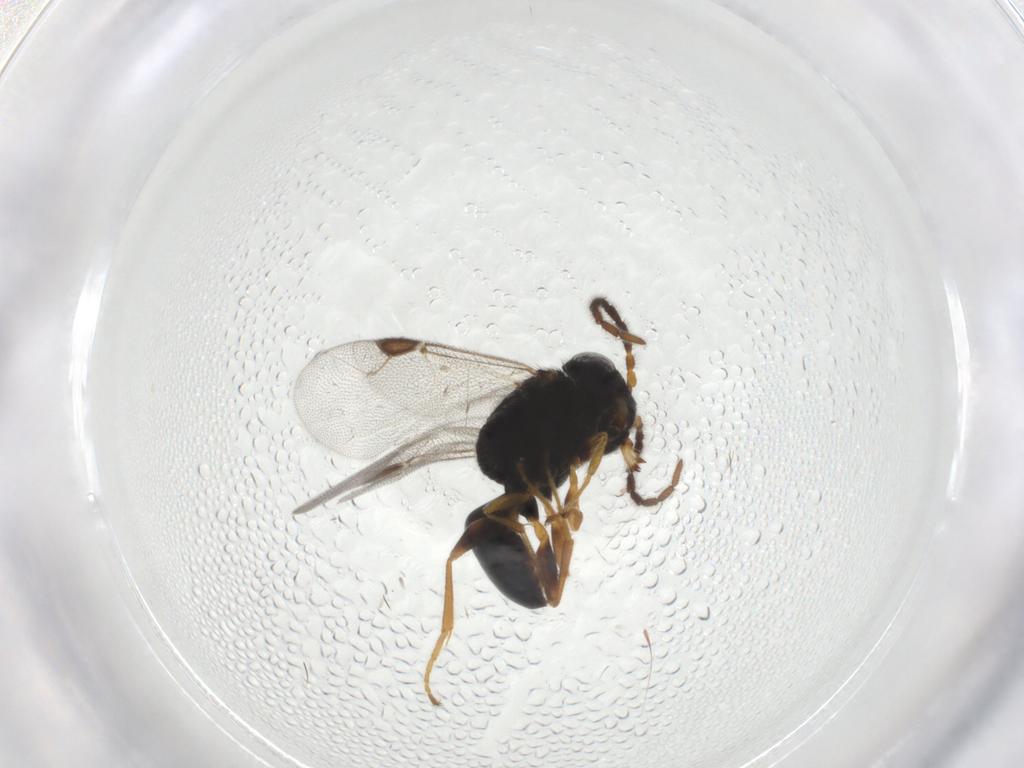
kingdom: Animalia
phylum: Arthropoda
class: Insecta
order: Hymenoptera
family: Dryinidae
